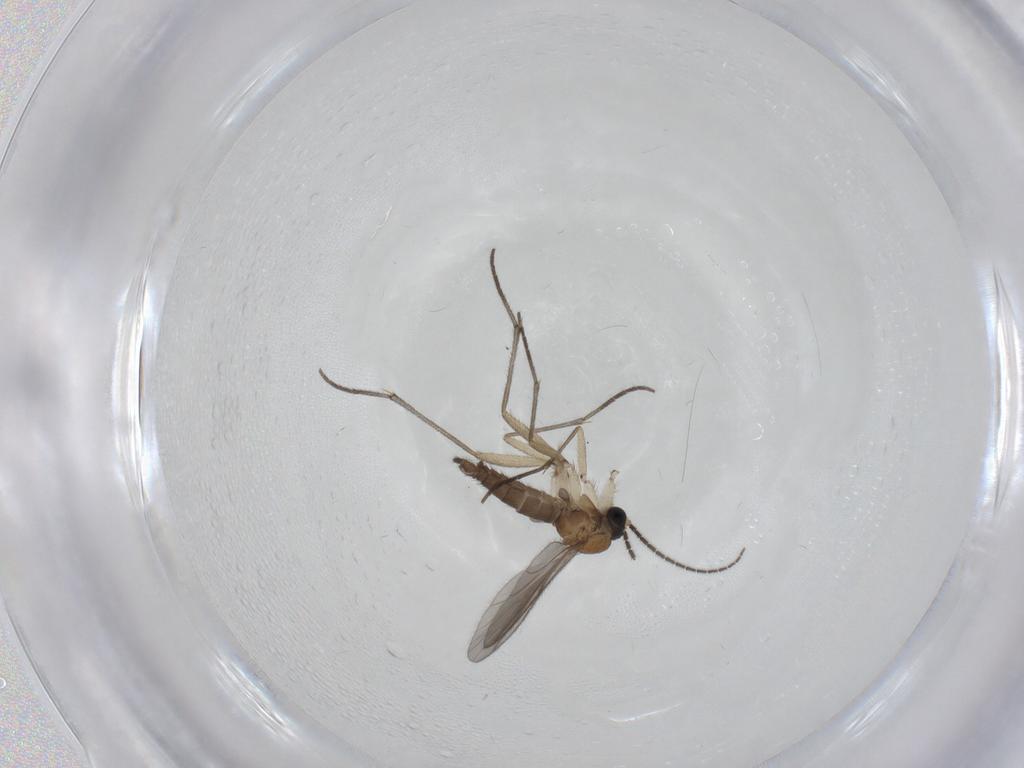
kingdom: Animalia
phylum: Arthropoda
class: Insecta
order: Diptera
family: Sciaridae
